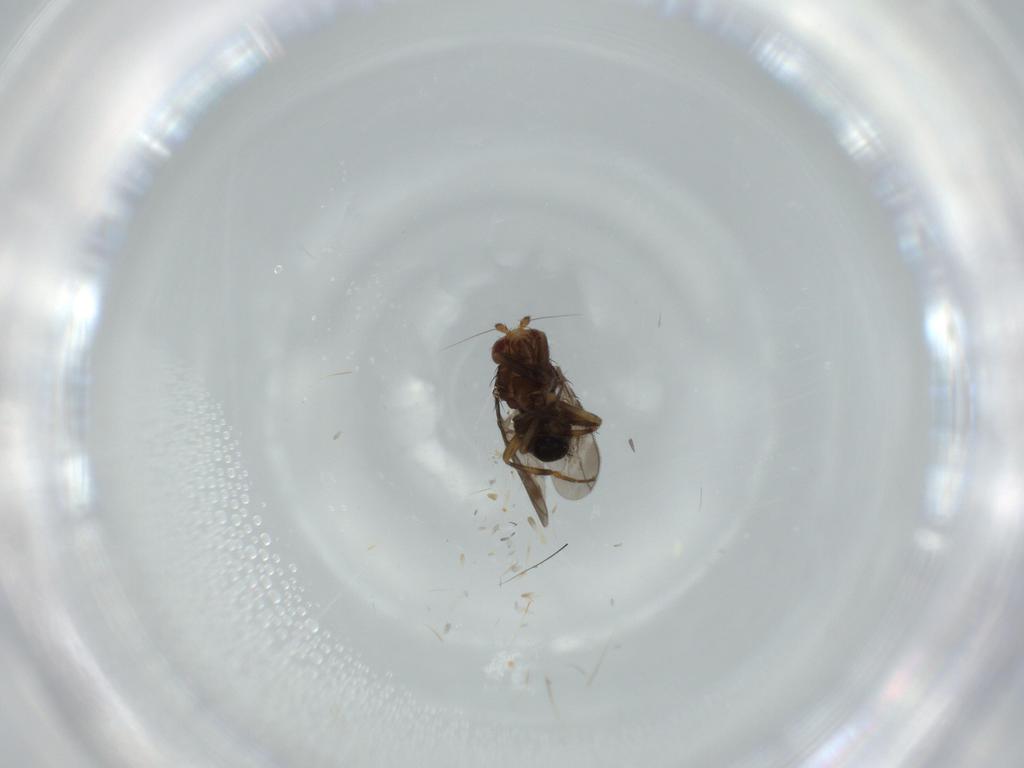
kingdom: Animalia
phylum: Arthropoda
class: Insecta
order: Diptera
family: Sphaeroceridae
